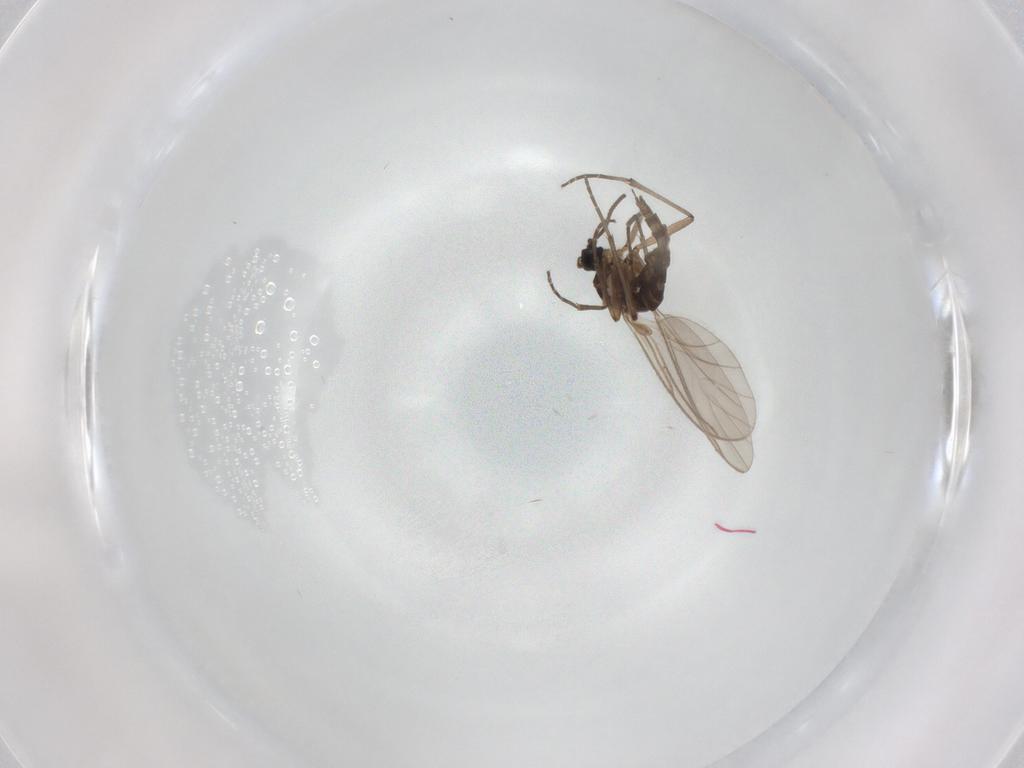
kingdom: Animalia
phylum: Arthropoda
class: Insecta
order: Diptera
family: Sciaridae
